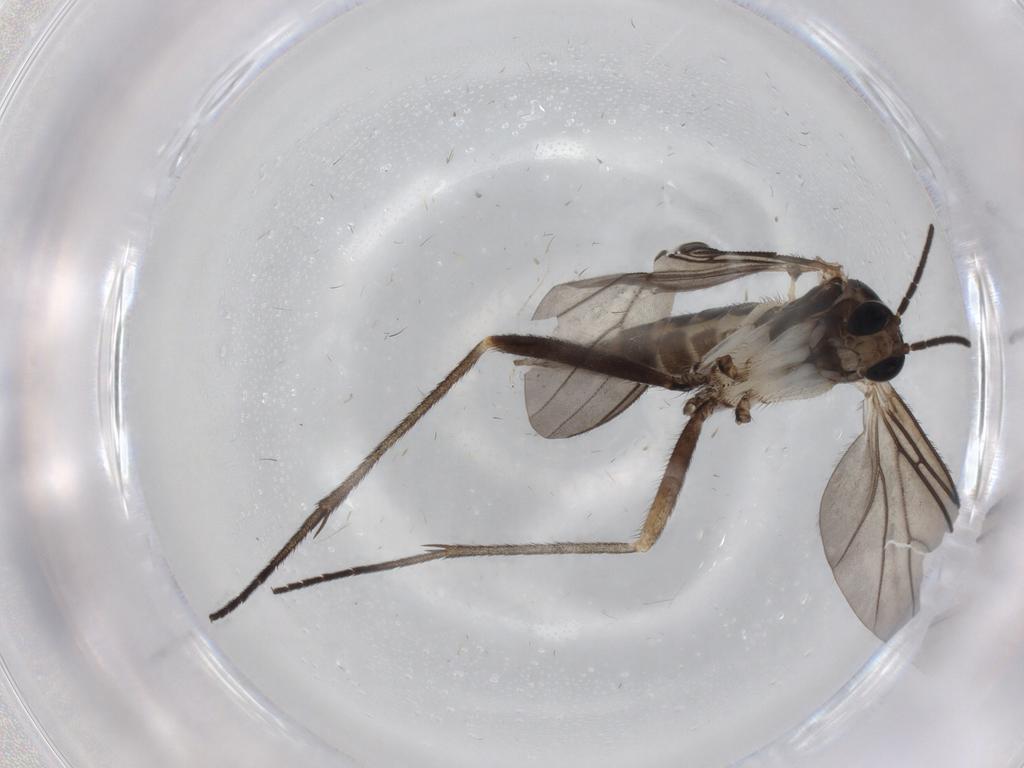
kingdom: Animalia
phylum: Arthropoda
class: Insecta
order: Diptera
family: Sciaridae
